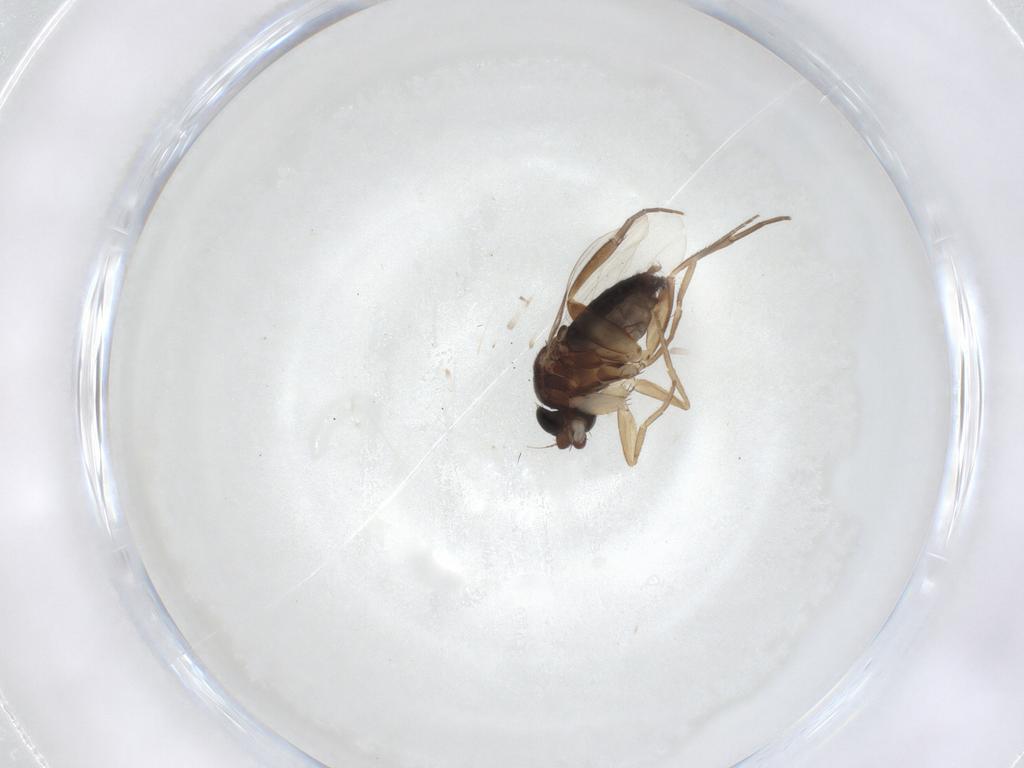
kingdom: Animalia
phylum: Arthropoda
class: Insecta
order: Diptera
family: Phoridae
